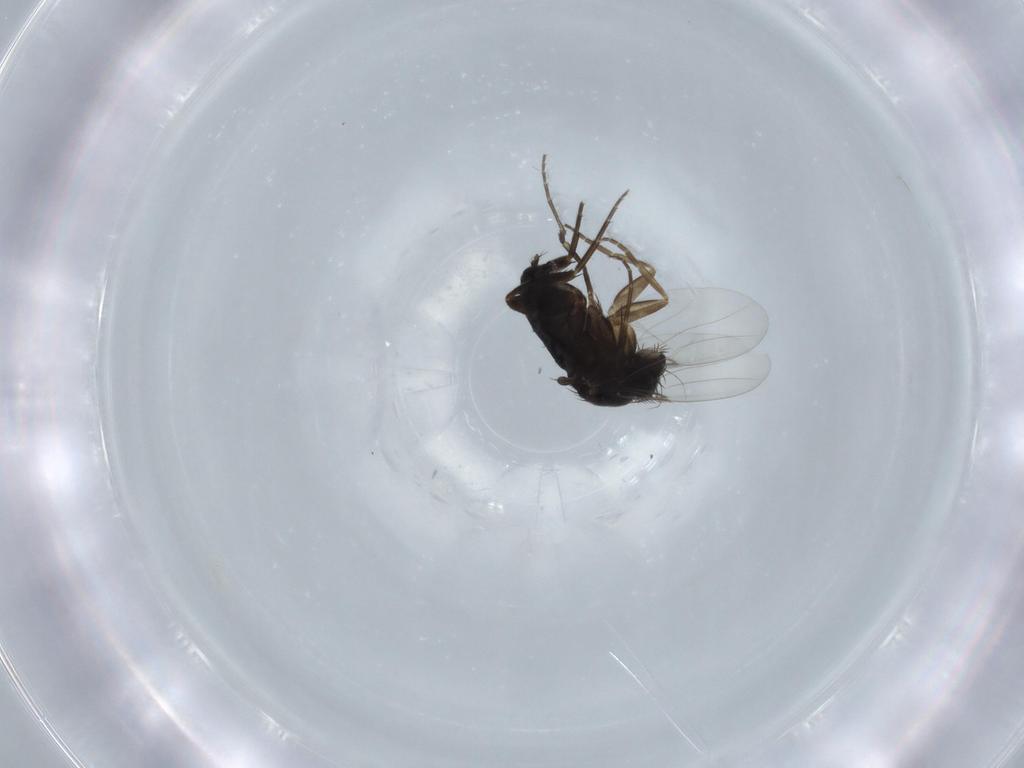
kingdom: Animalia
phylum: Arthropoda
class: Insecta
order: Diptera
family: Phoridae
